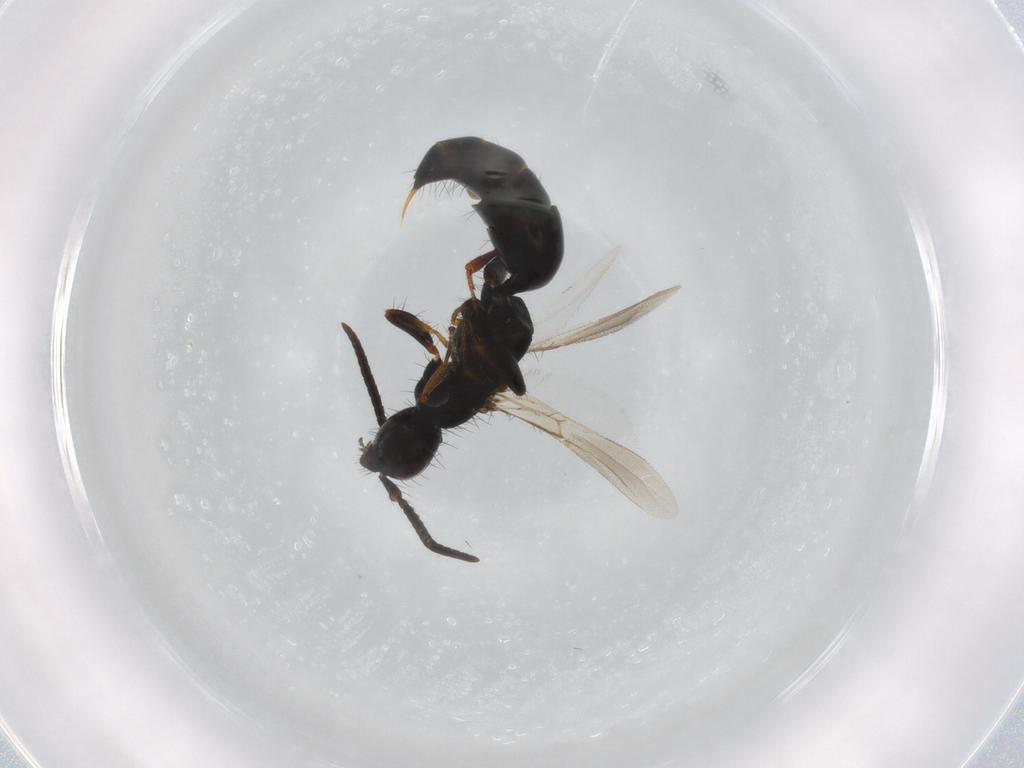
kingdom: Animalia
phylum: Arthropoda
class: Insecta
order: Hymenoptera
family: Bethylidae
